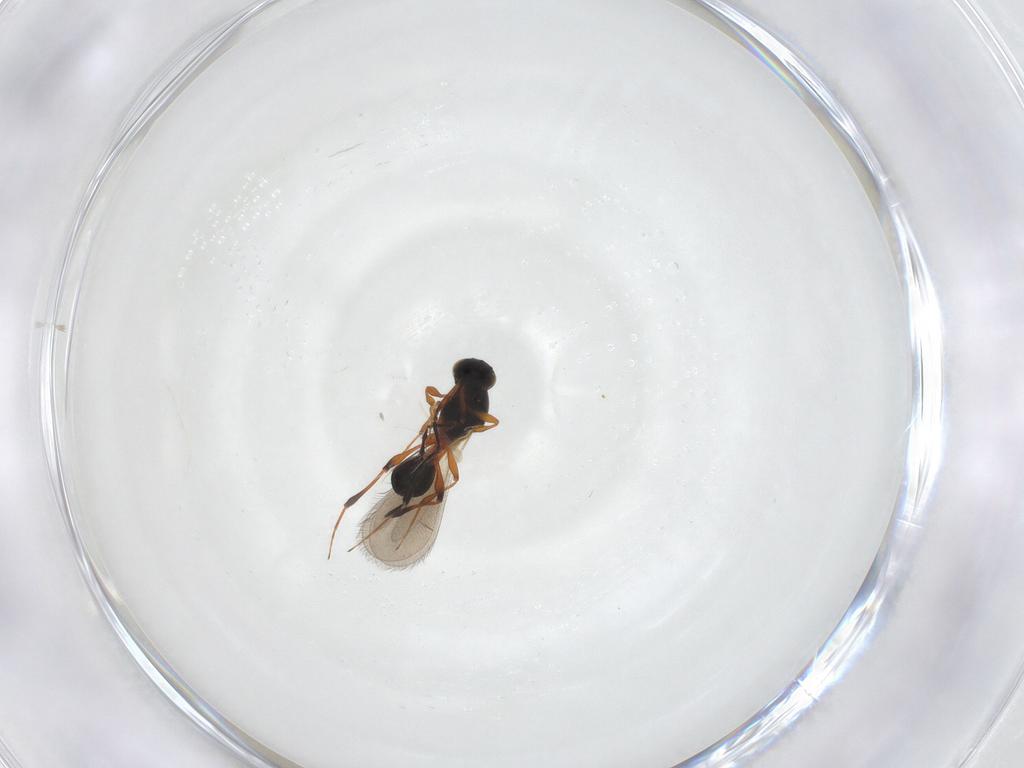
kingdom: Animalia
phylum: Arthropoda
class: Insecta
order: Hymenoptera
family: Platygastridae
